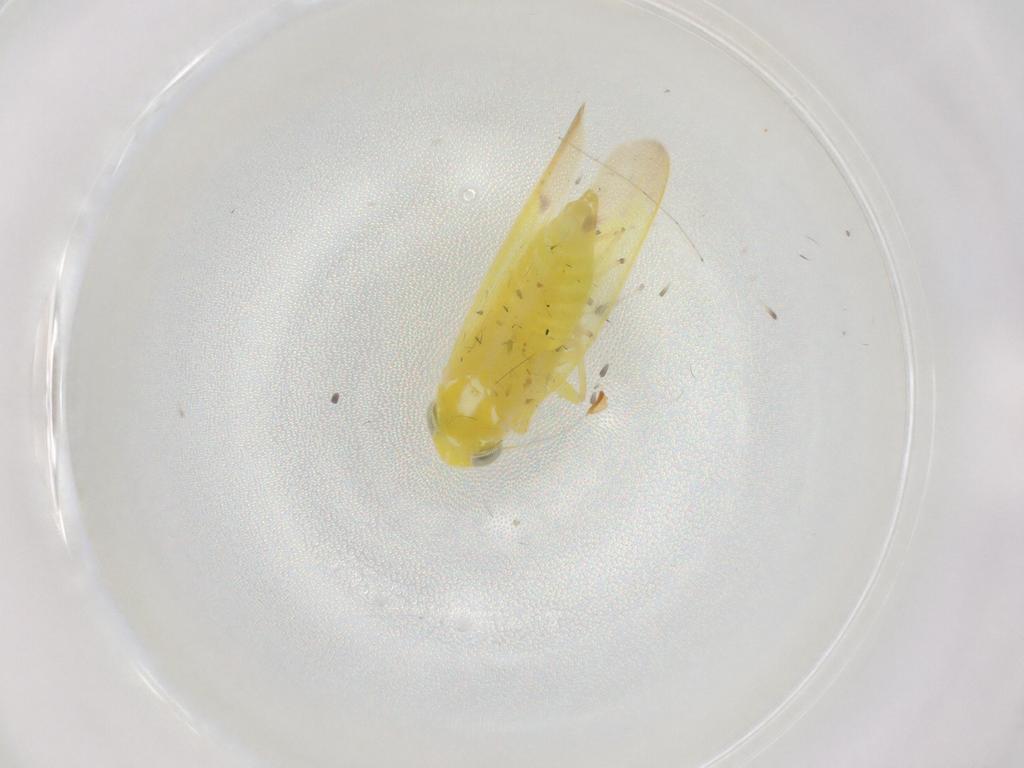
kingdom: Animalia
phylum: Arthropoda
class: Insecta
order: Hemiptera
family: Cicadellidae
